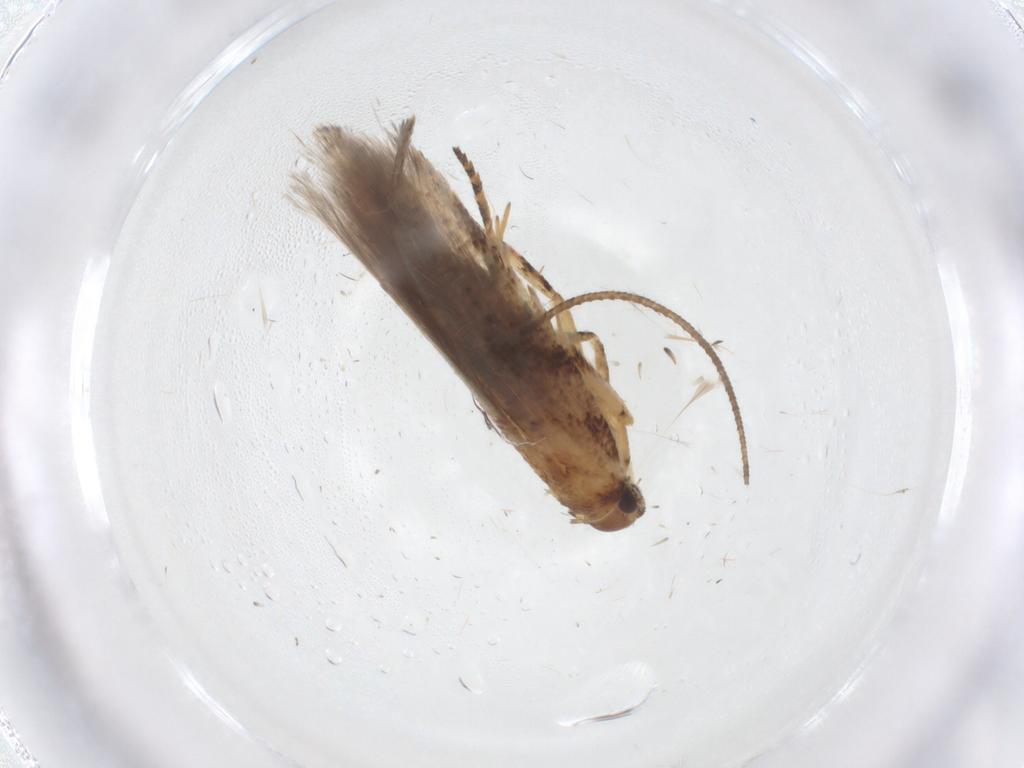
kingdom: Animalia
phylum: Arthropoda
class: Insecta
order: Lepidoptera
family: Gelechiidae
